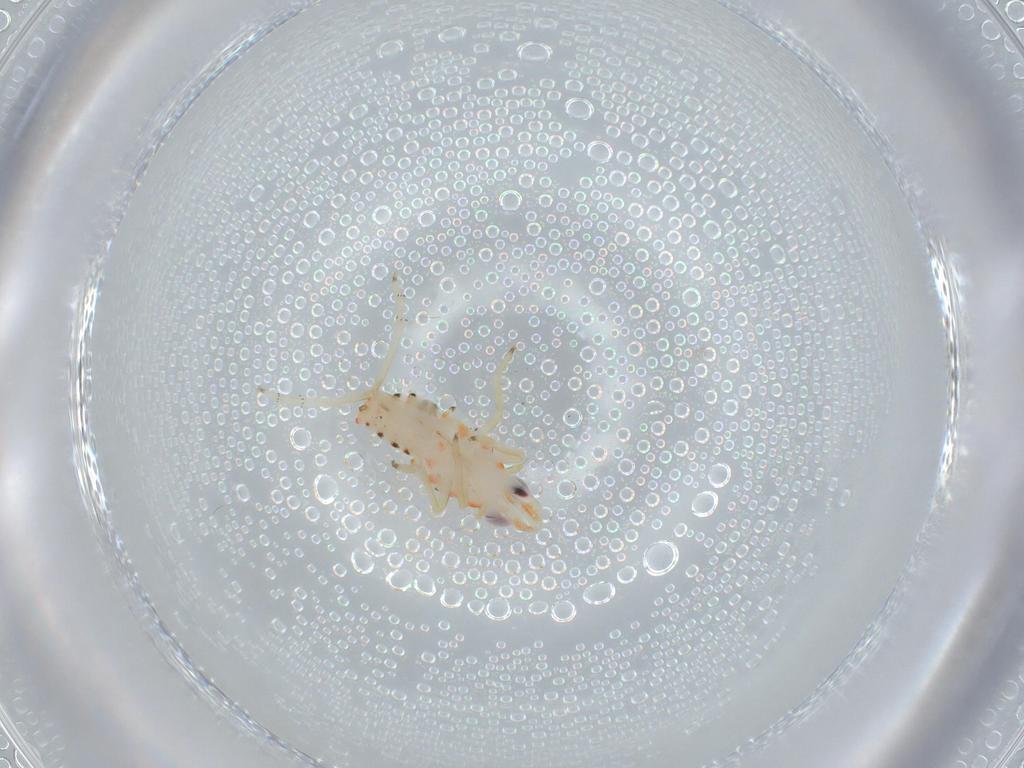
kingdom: Animalia
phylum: Arthropoda
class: Insecta
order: Hemiptera
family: Tropiduchidae
